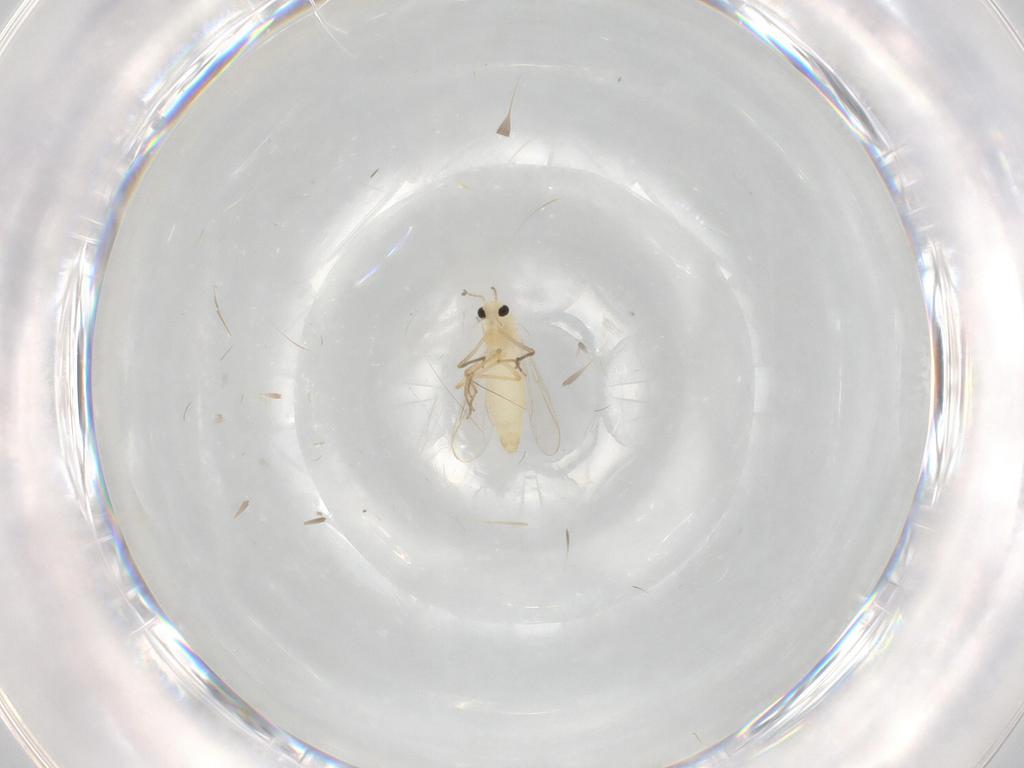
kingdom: Animalia
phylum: Arthropoda
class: Insecta
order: Diptera
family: Chironomidae
